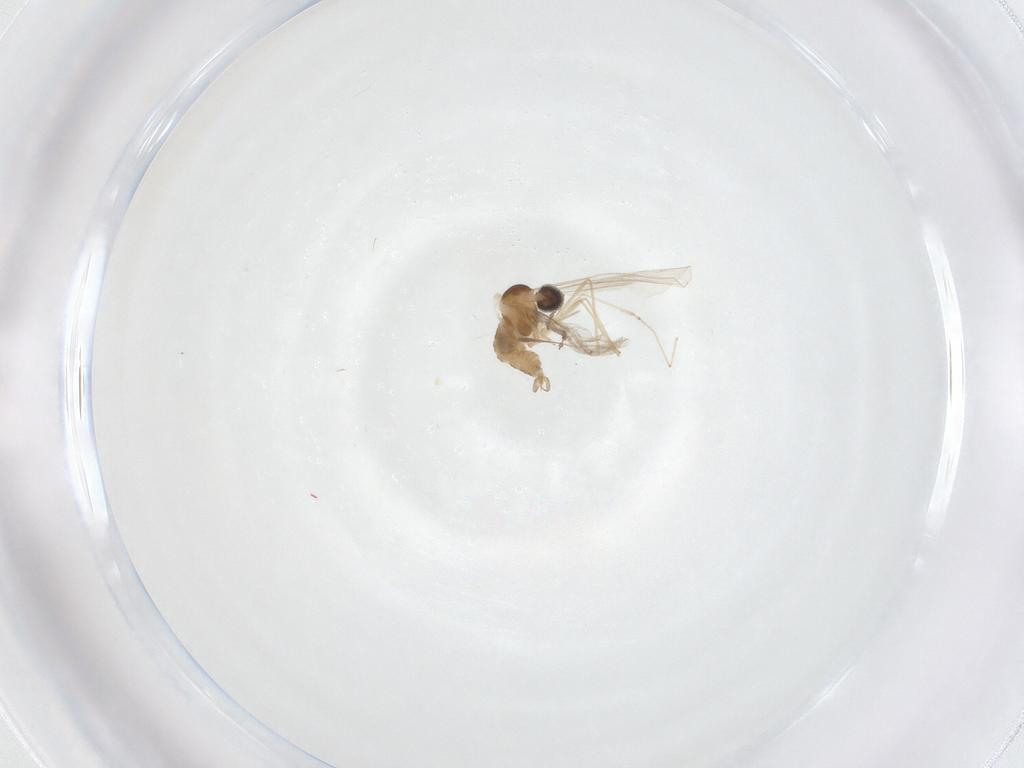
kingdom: Animalia
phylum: Arthropoda
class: Insecta
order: Diptera
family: Cecidomyiidae
